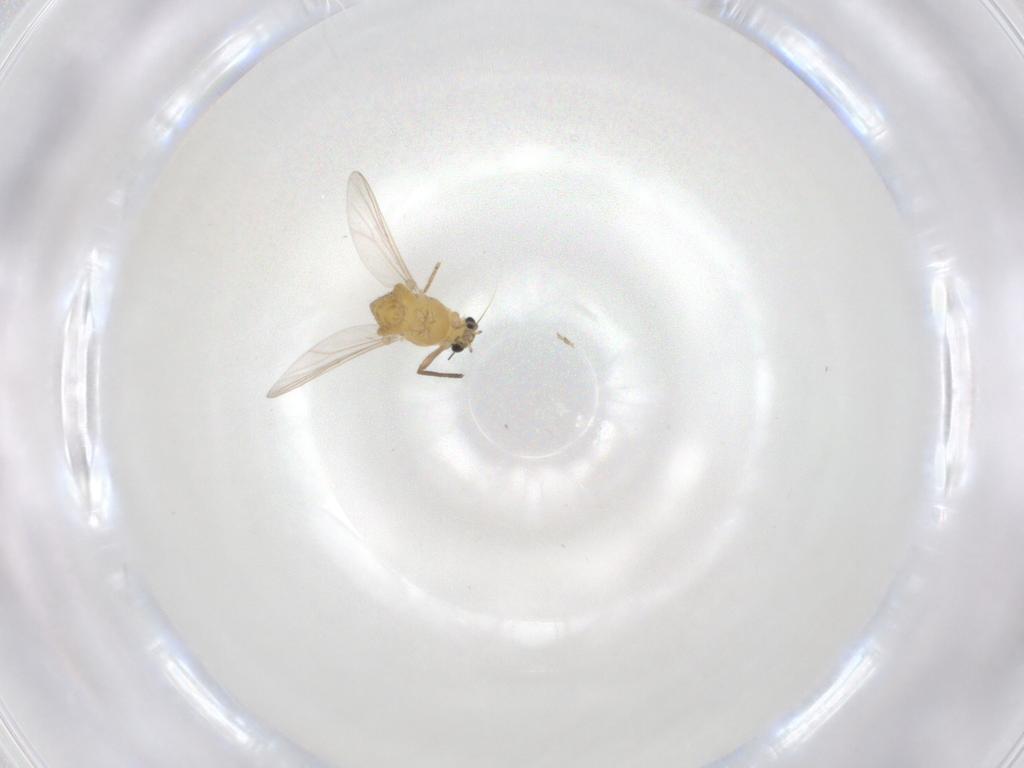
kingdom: Animalia
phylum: Arthropoda
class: Insecta
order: Diptera
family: Chironomidae
